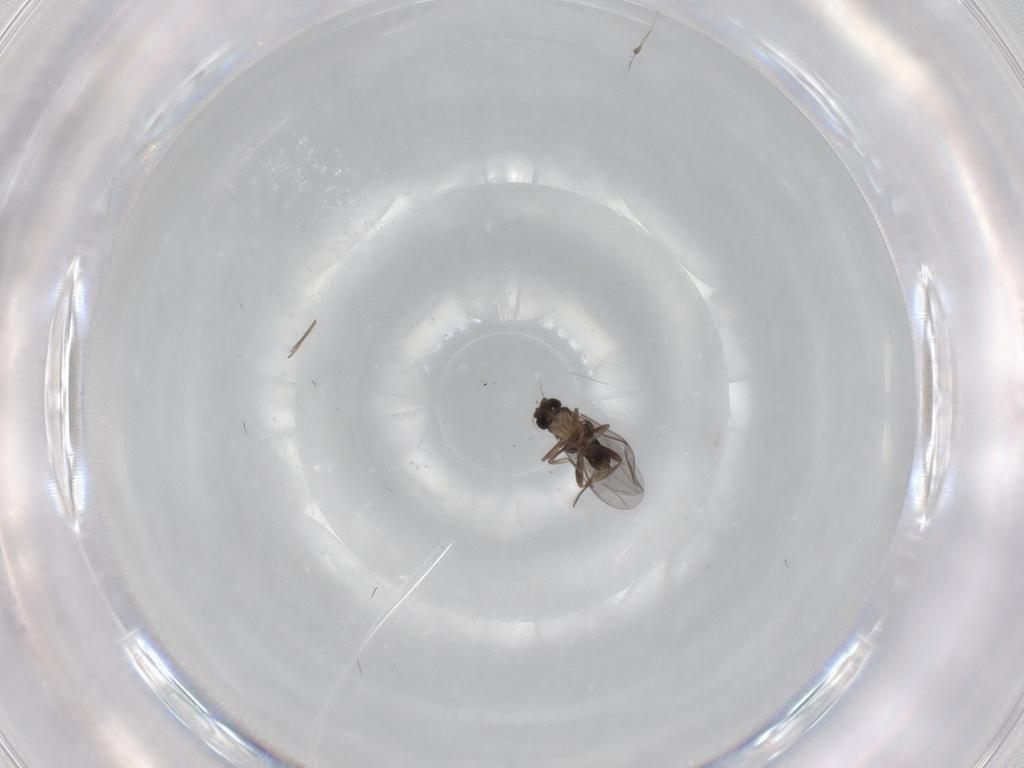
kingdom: Animalia
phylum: Arthropoda
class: Insecta
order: Diptera
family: Ceratopogonidae
